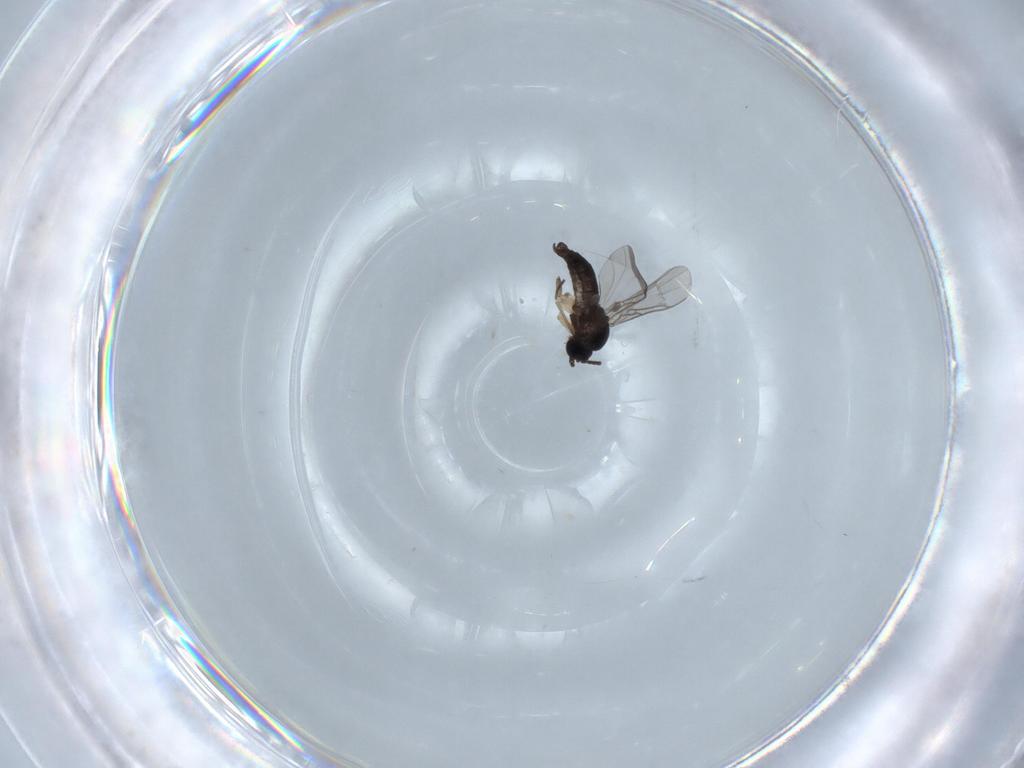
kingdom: Animalia
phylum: Arthropoda
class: Insecta
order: Diptera
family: Sciaridae
